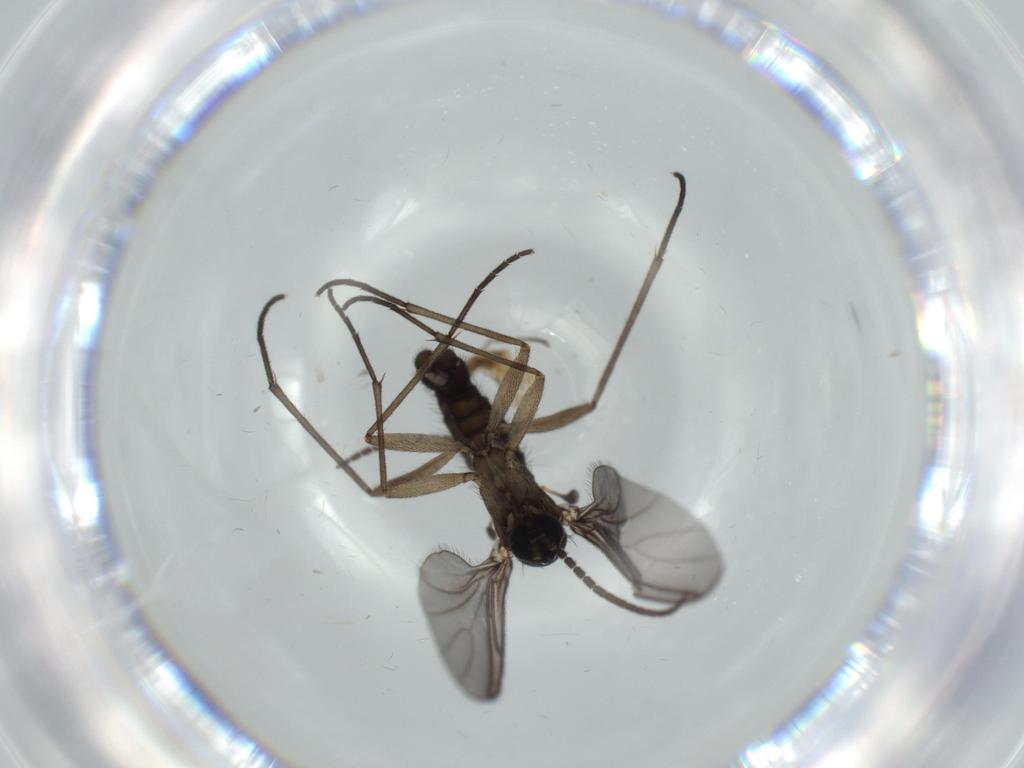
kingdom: Animalia
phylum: Arthropoda
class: Insecta
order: Diptera
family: Sciaridae
